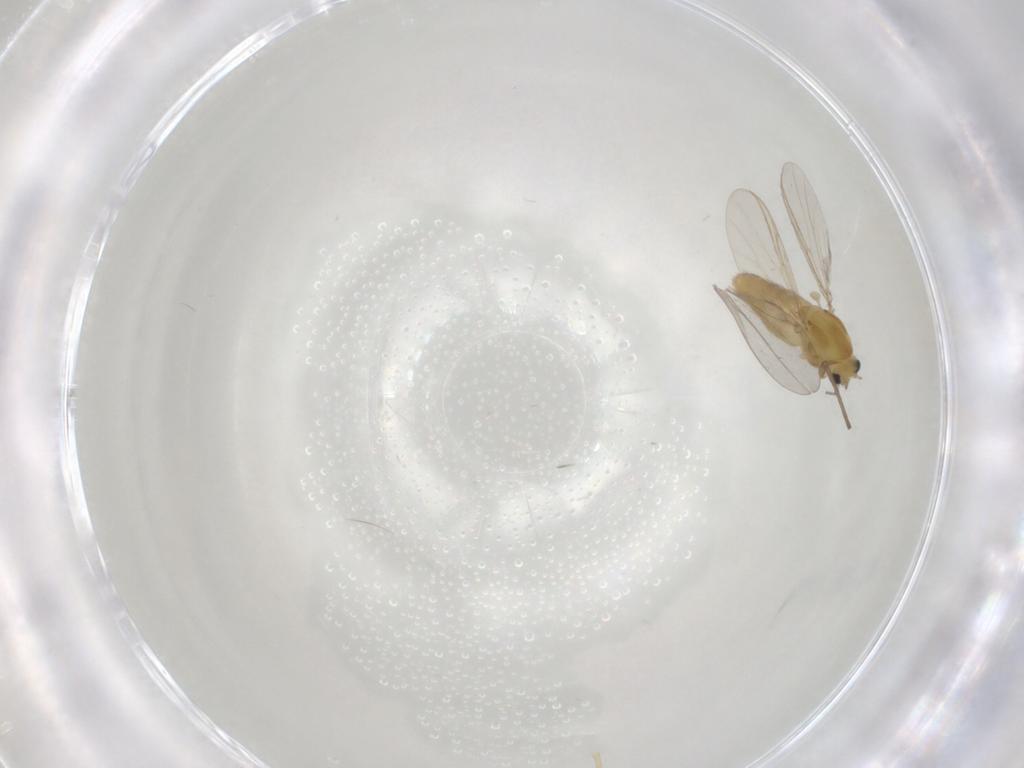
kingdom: Animalia
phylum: Arthropoda
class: Insecta
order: Diptera
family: Chironomidae
